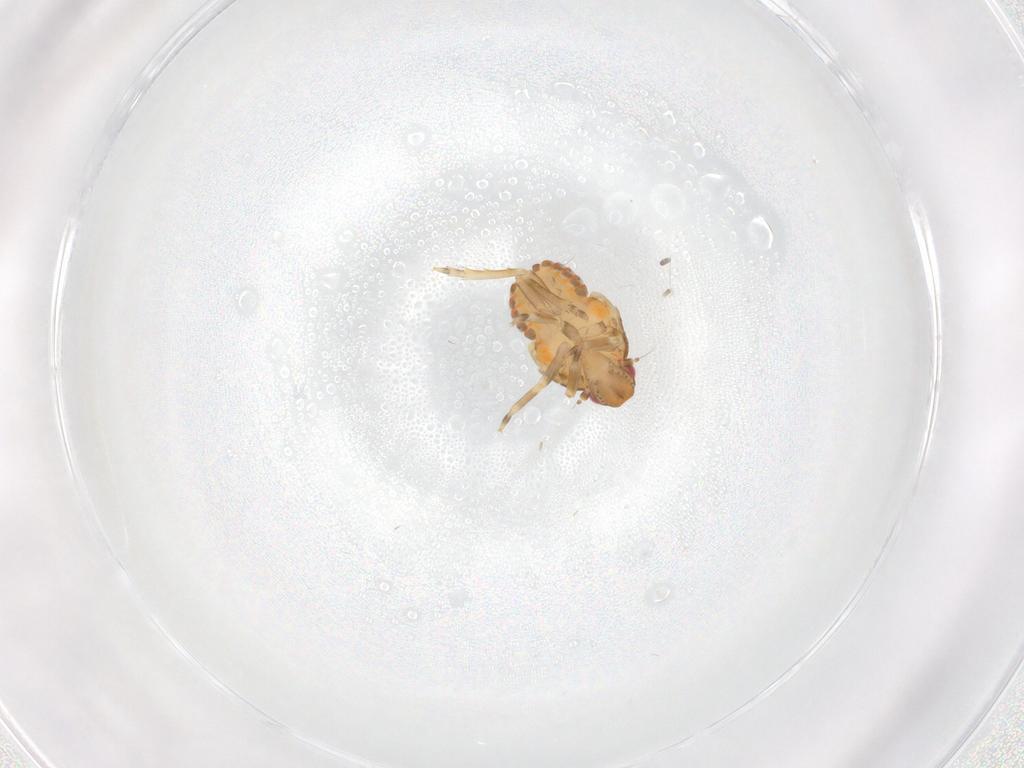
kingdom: Animalia
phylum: Arthropoda
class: Insecta
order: Hemiptera
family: Flatidae
